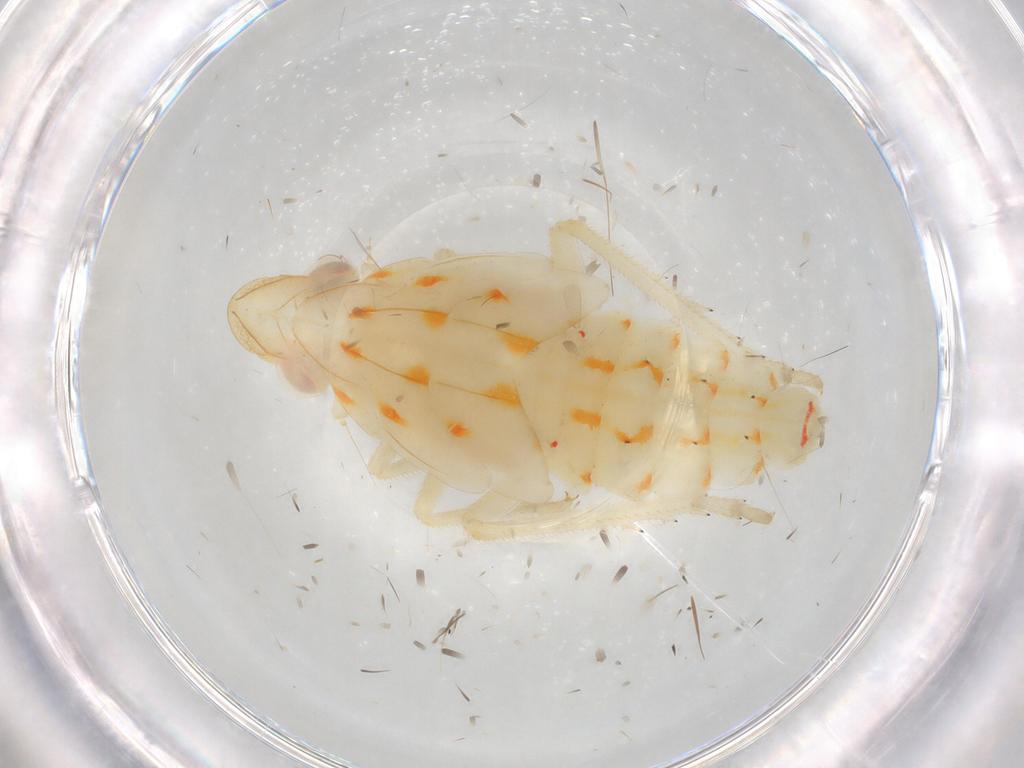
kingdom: Animalia
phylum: Arthropoda
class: Insecta
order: Hemiptera
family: Tropiduchidae
